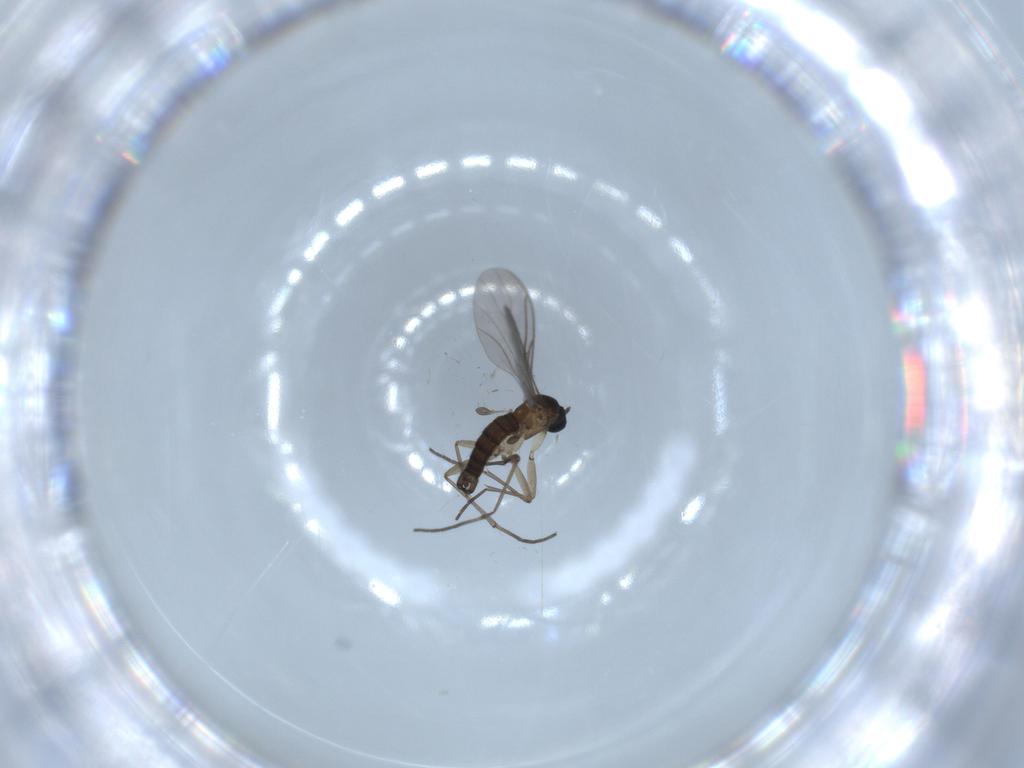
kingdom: Animalia
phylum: Arthropoda
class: Insecta
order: Diptera
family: Sciaridae
